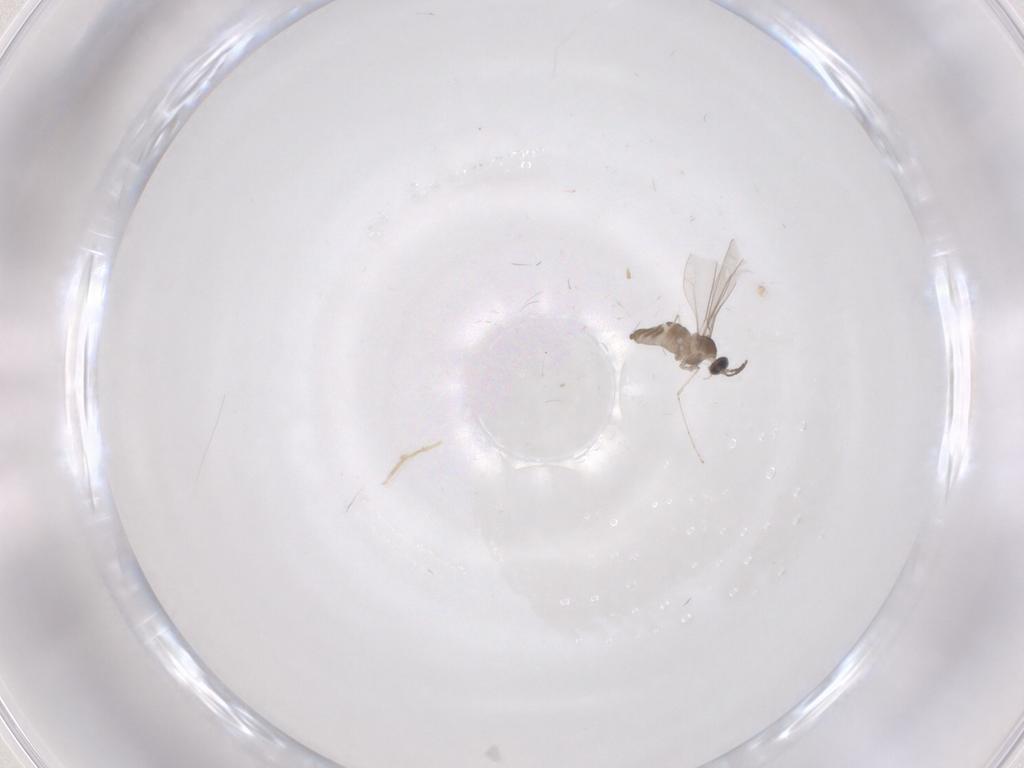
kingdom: Animalia
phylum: Arthropoda
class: Insecta
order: Diptera
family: Cecidomyiidae
